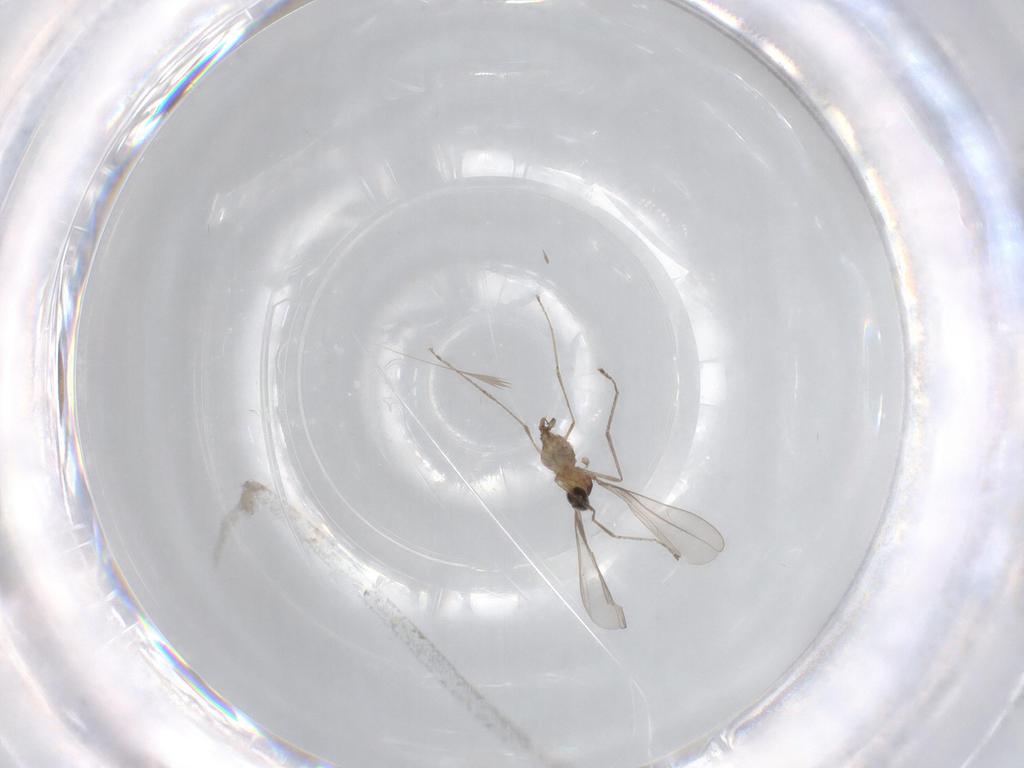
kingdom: Animalia
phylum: Arthropoda
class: Insecta
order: Diptera
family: Cecidomyiidae
